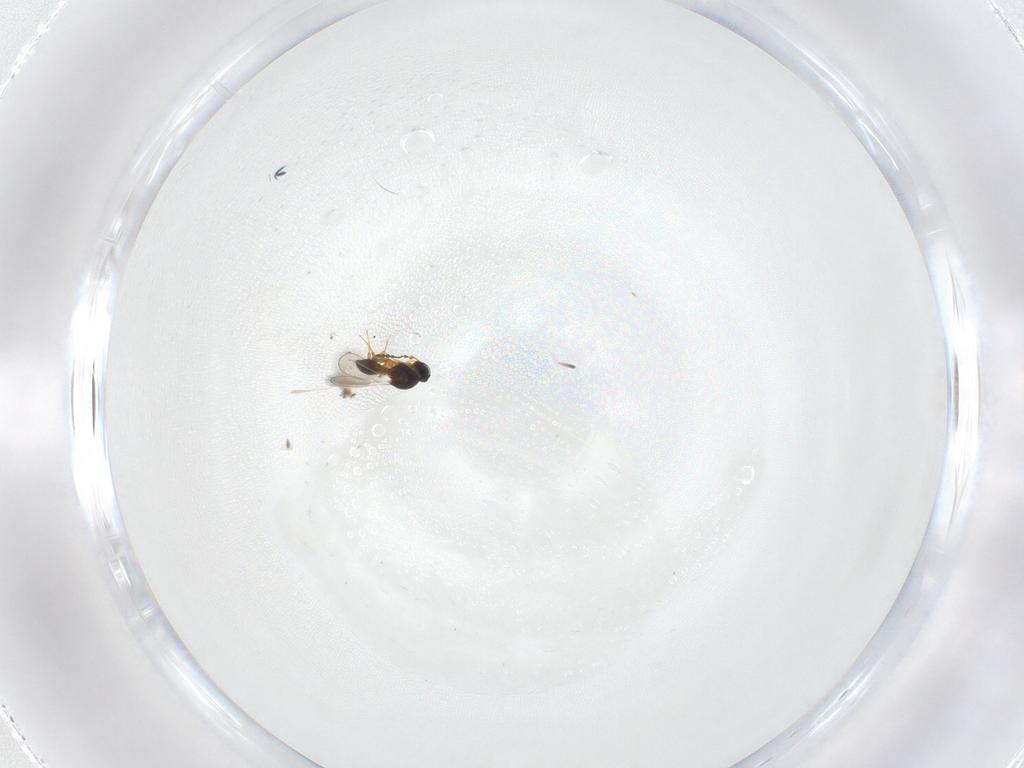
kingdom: Animalia
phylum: Arthropoda
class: Insecta
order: Hymenoptera
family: Platygastridae
